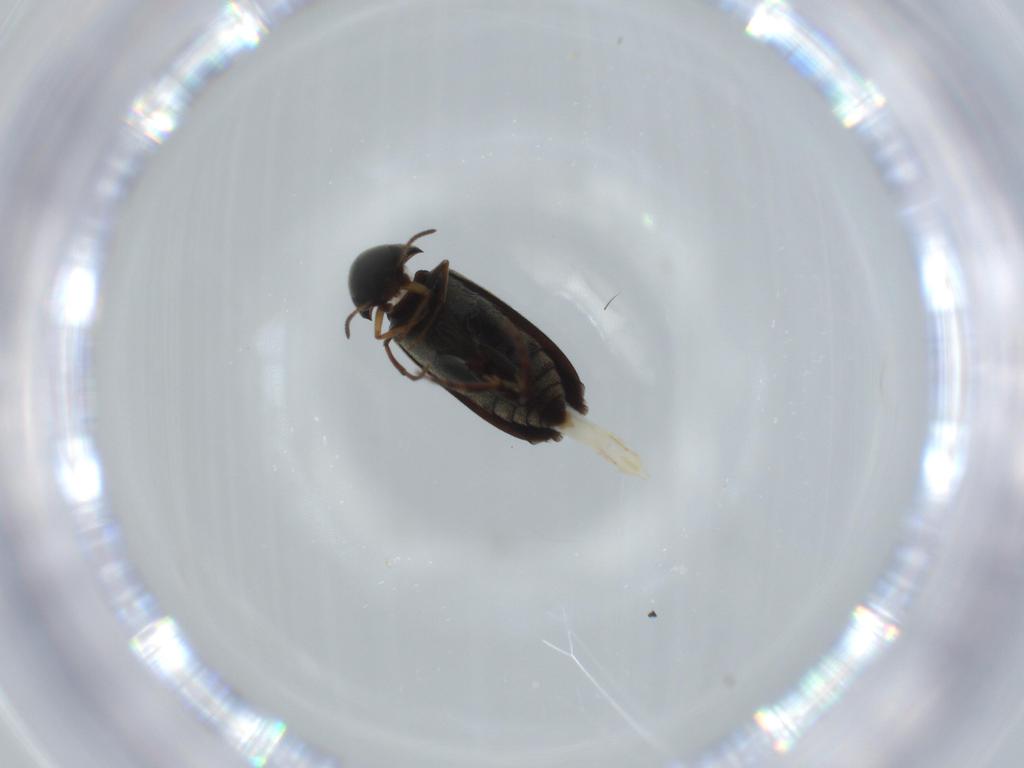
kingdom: Animalia
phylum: Arthropoda
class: Insecta
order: Coleoptera
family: Mordellidae
